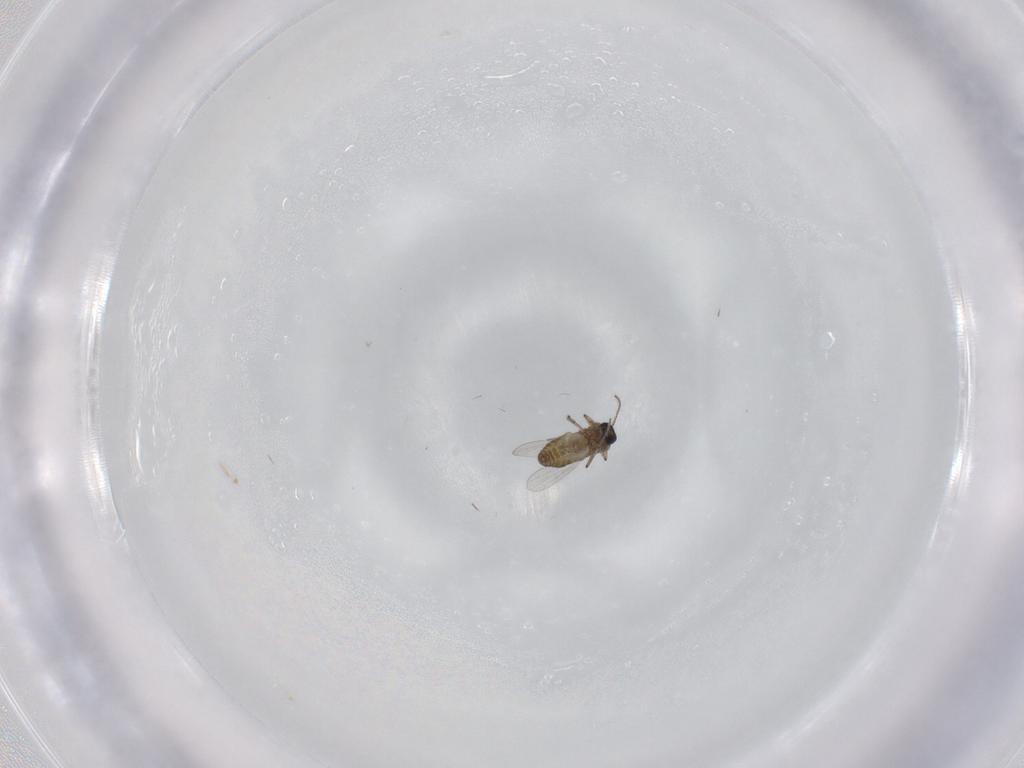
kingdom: Animalia
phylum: Arthropoda
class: Insecta
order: Diptera
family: Ceratopogonidae
